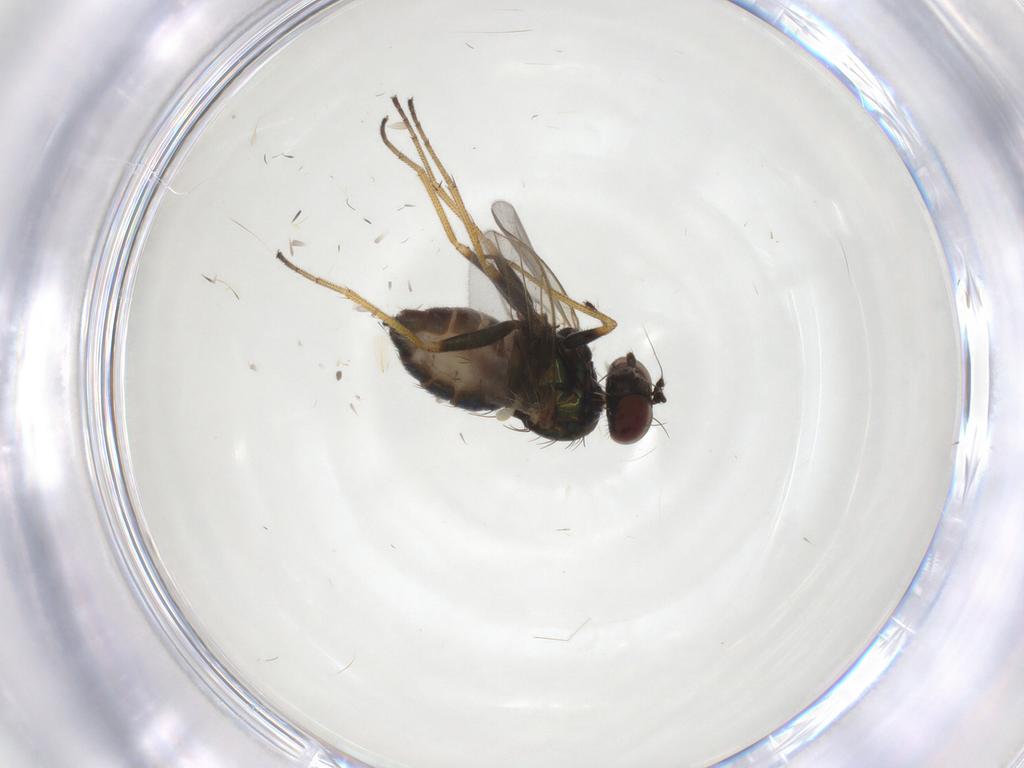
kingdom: Animalia
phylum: Arthropoda
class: Insecta
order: Diptera
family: Dolichopodidae
